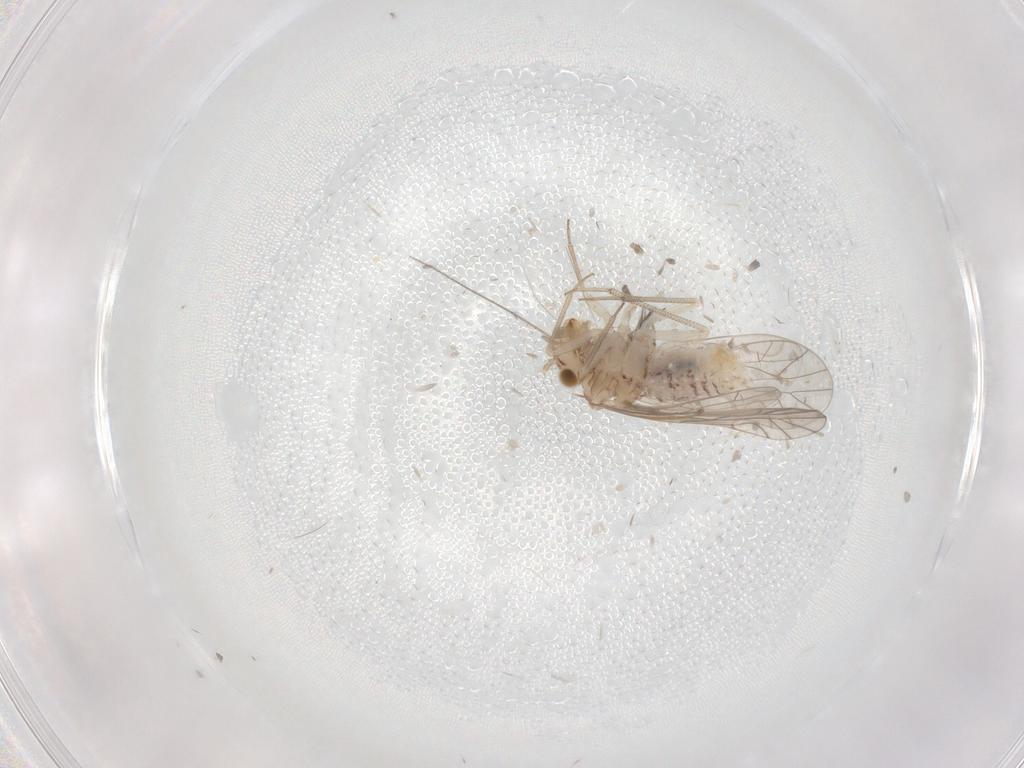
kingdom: Animalia
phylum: Arthropoda
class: Insecta
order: Psocodea
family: Lachesillidae
